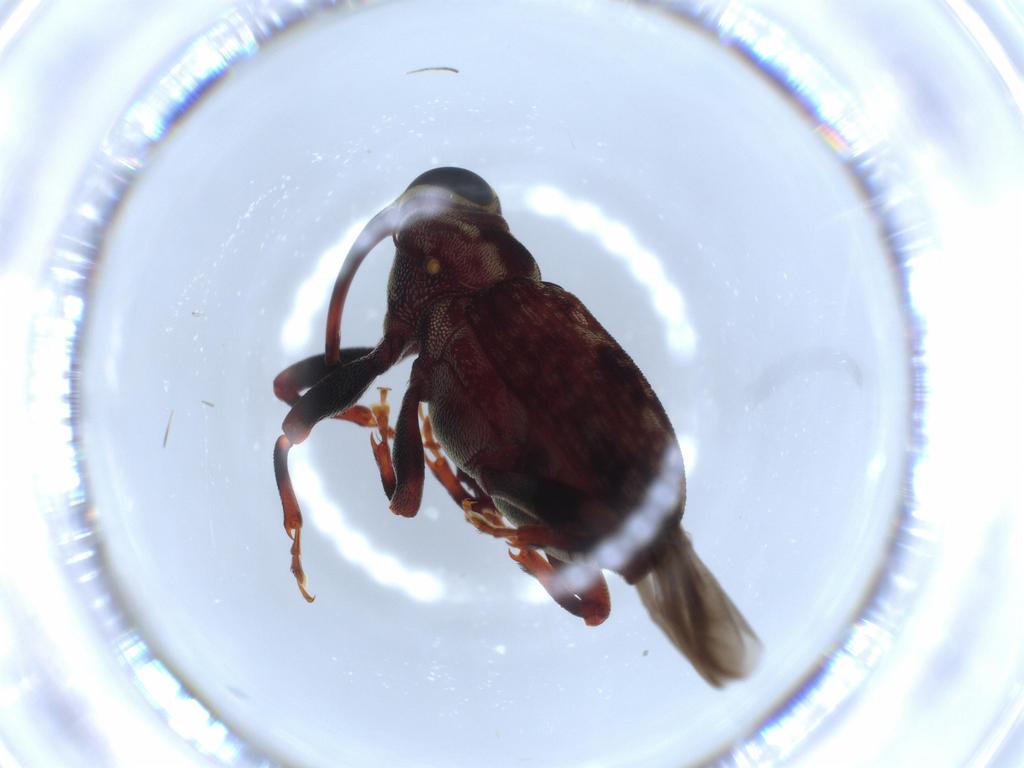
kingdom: Animalia
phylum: Arthropoda
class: Insecta
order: Coleoptera
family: Curculionidae
